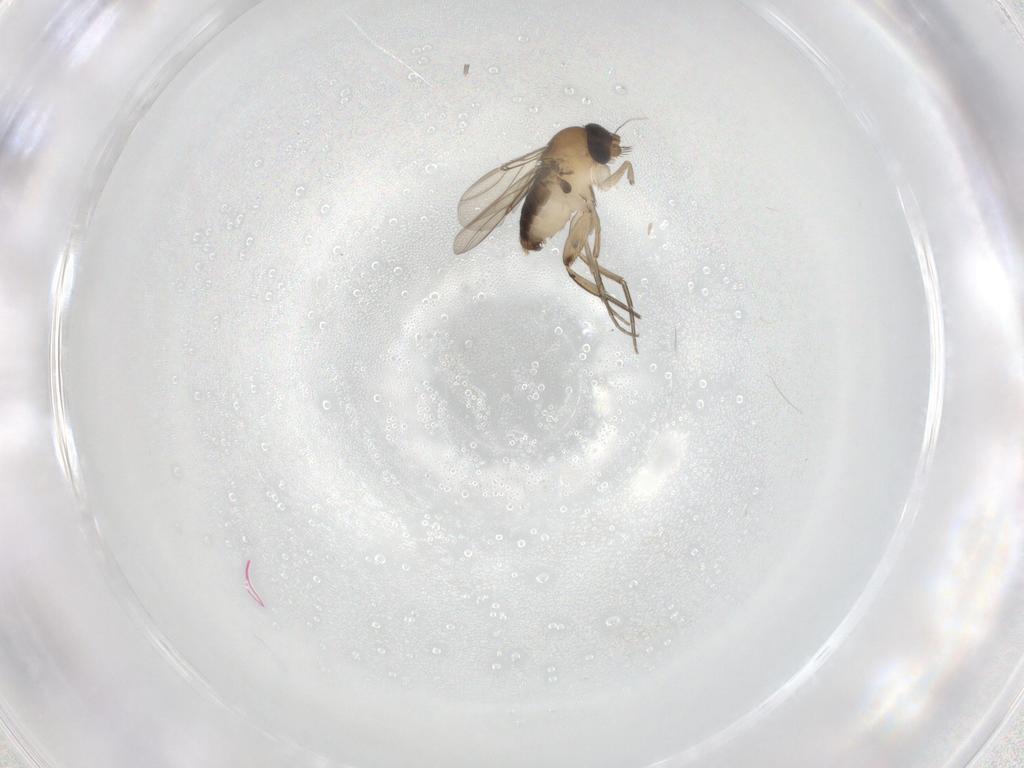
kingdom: Animalia
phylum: Arthropoda
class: Insecta
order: Diptera
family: Phoridae
